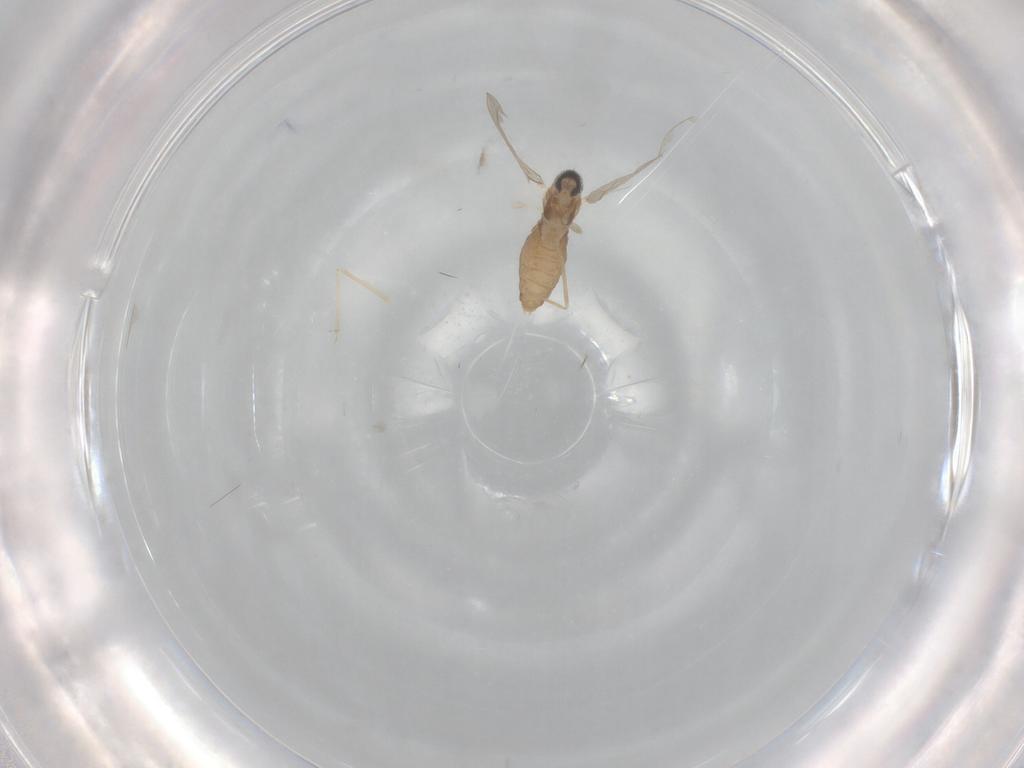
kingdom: Animalia
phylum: Arthropoda
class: Insecta
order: Diptera
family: Cecidomyiidae
